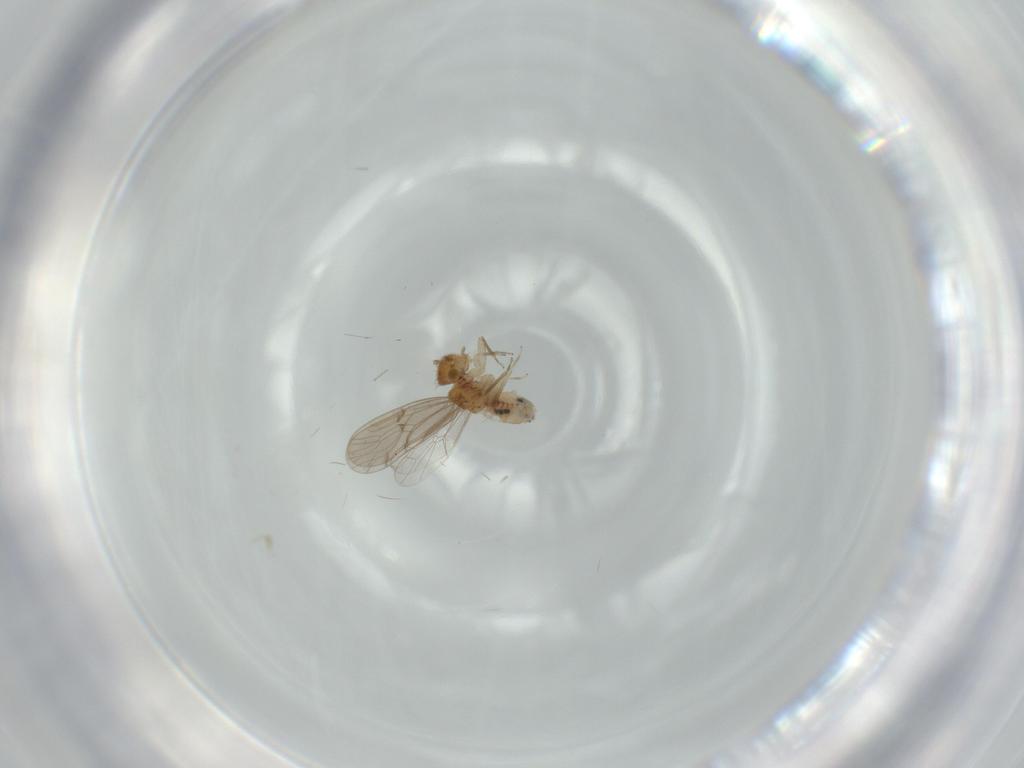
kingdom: Animalia
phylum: Arthropoda
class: Insecta
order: Psocodea
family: Ectopsocidae
